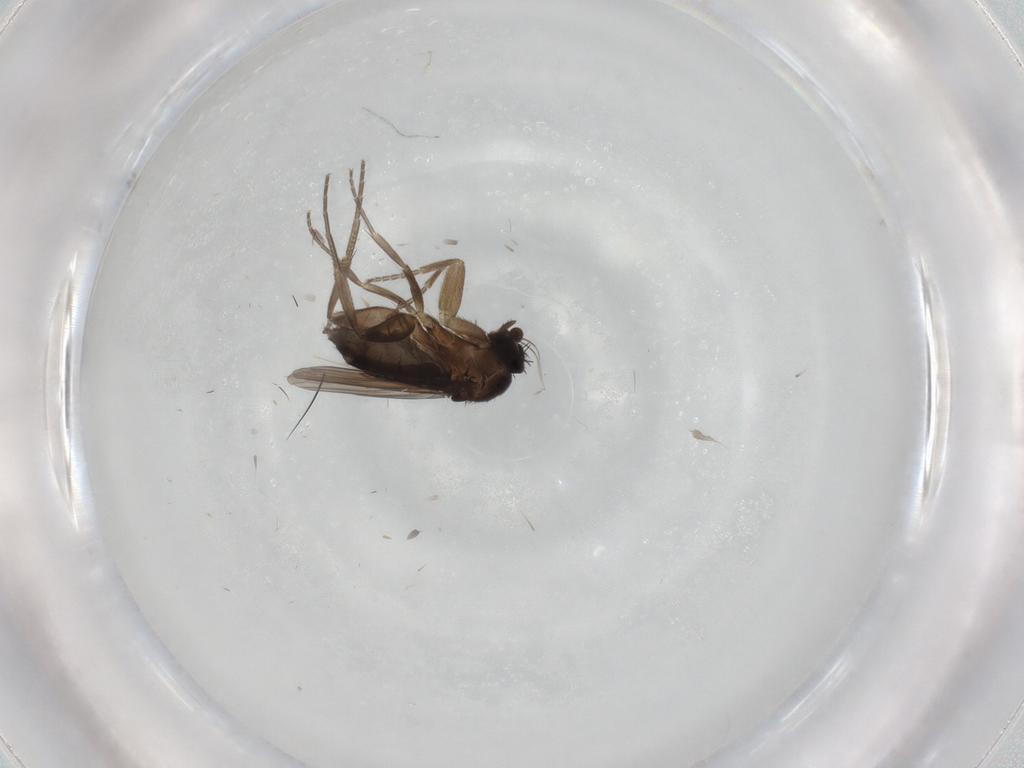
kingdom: Animalia
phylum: Arthropoda
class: Insecta
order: Diptera
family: Phoridae
